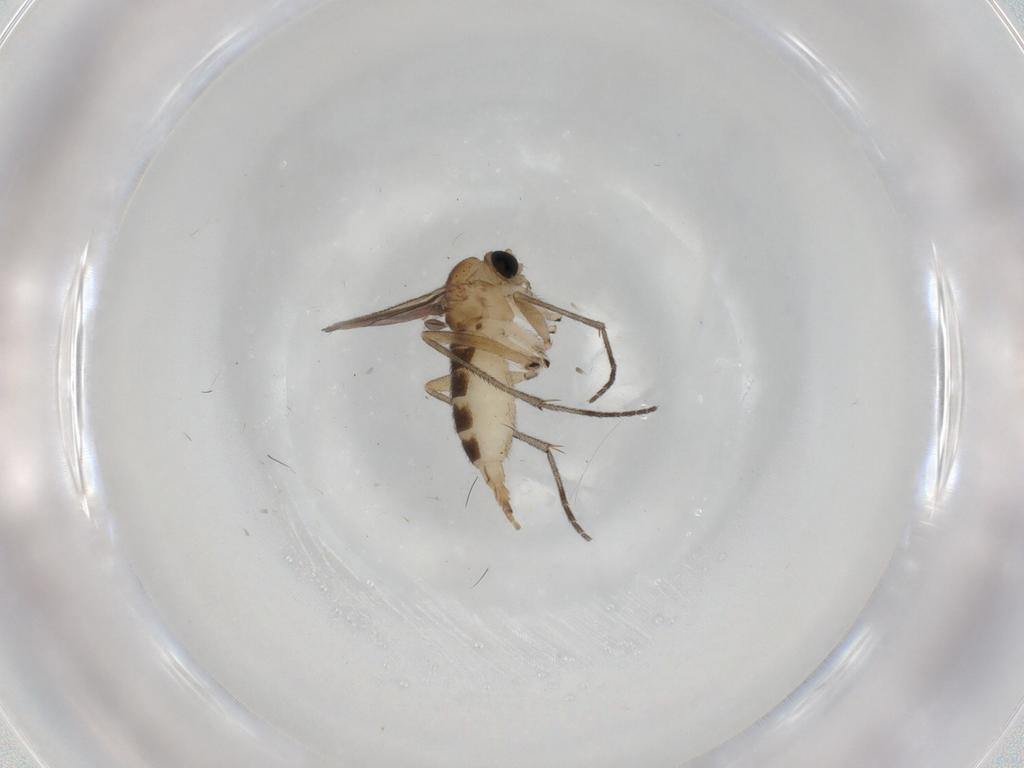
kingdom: Animalia
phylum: Arthropoda
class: Insecta
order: Diptera
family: Sciaridae
